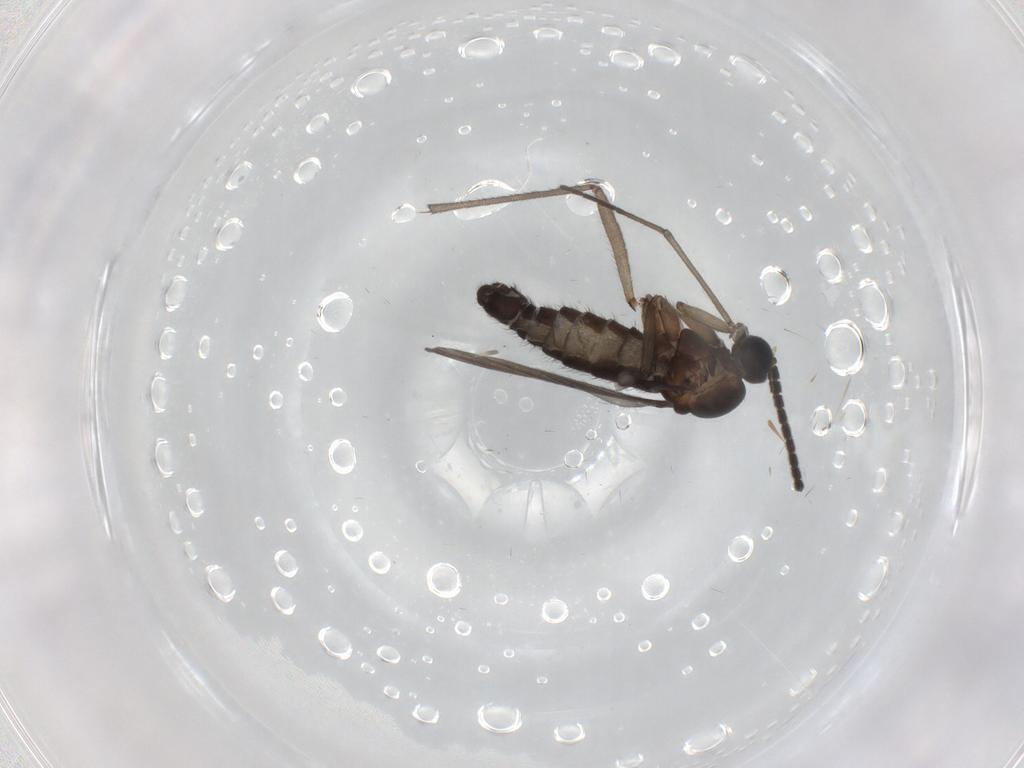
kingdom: Animalia
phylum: Arthropoda
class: Insecta
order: Diptera
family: Sciaridae
